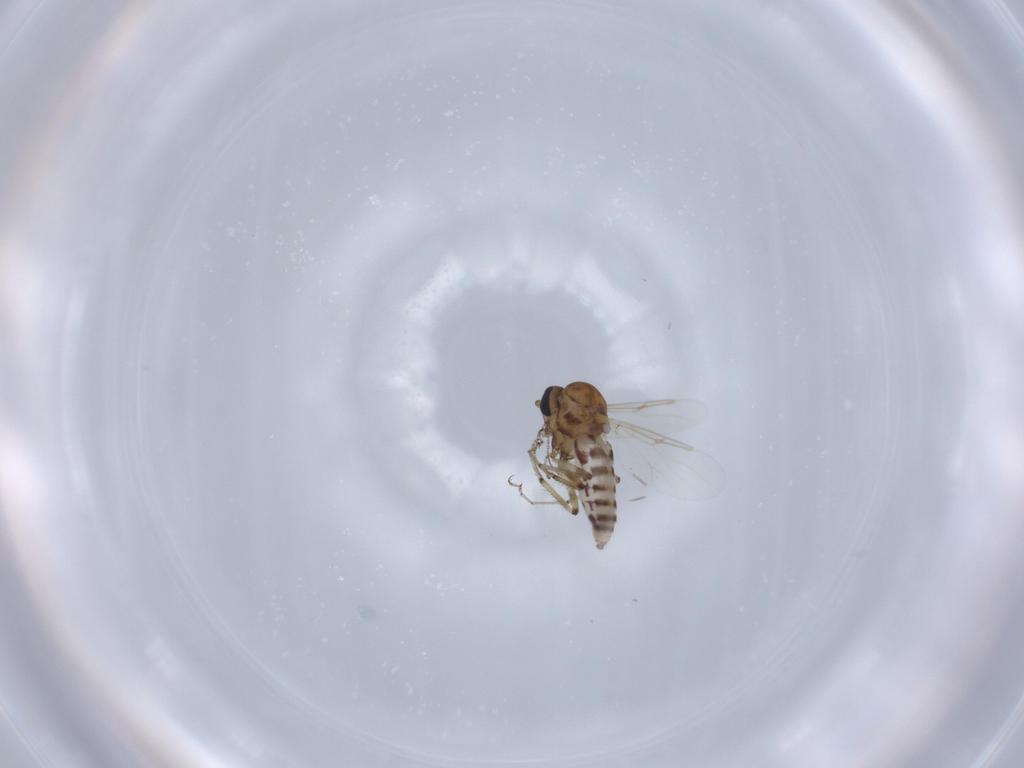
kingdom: Animalia
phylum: Arthropoda
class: Insecta
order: Diptera
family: Ceratopogonidae
